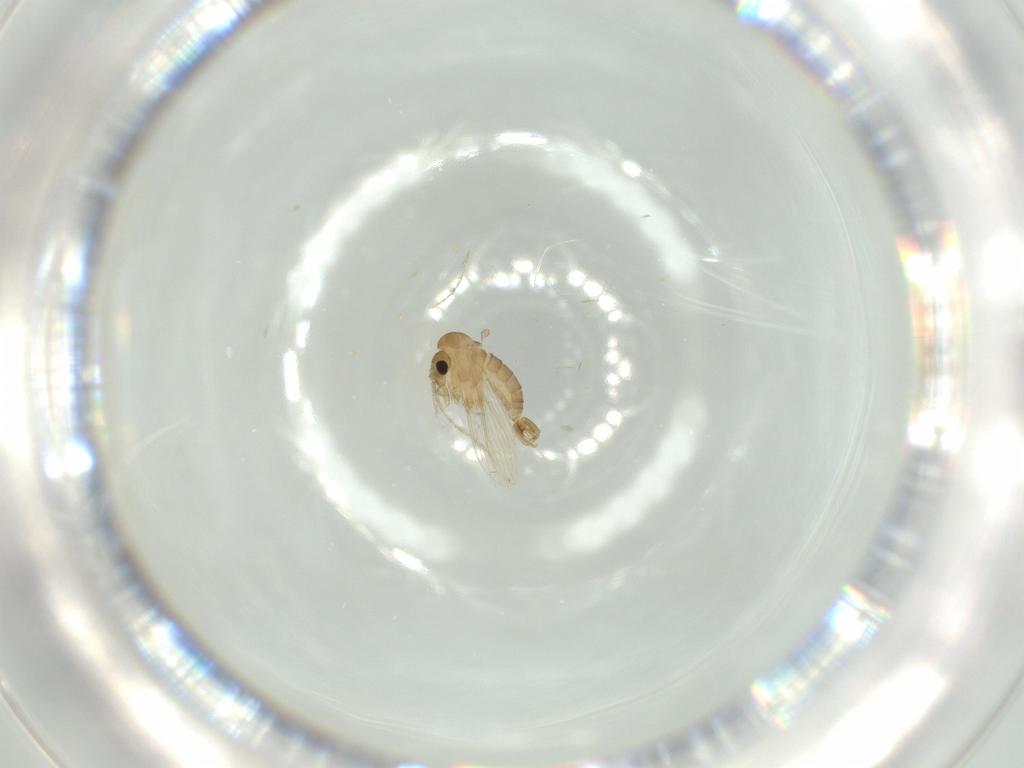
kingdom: Animalia
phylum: Arthropoda
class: Insecta
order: Diptera
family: Psychodidae
